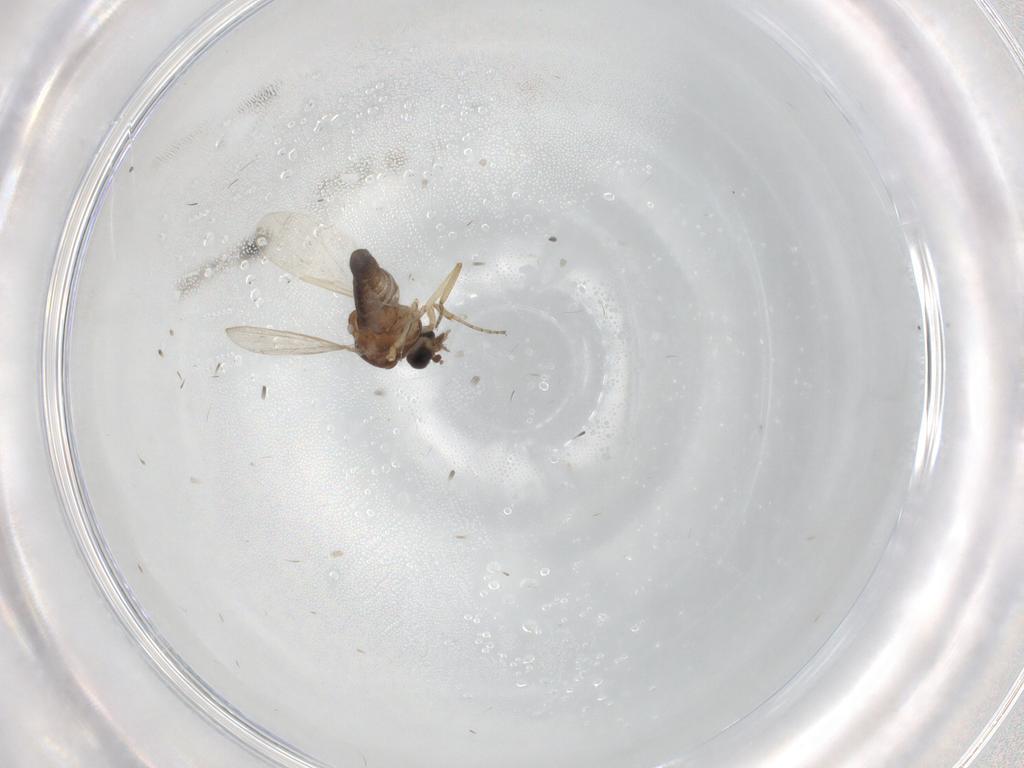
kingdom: Animalia
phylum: Arthropoda
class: Insecta
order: Diptera
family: Ceratopogonidae
